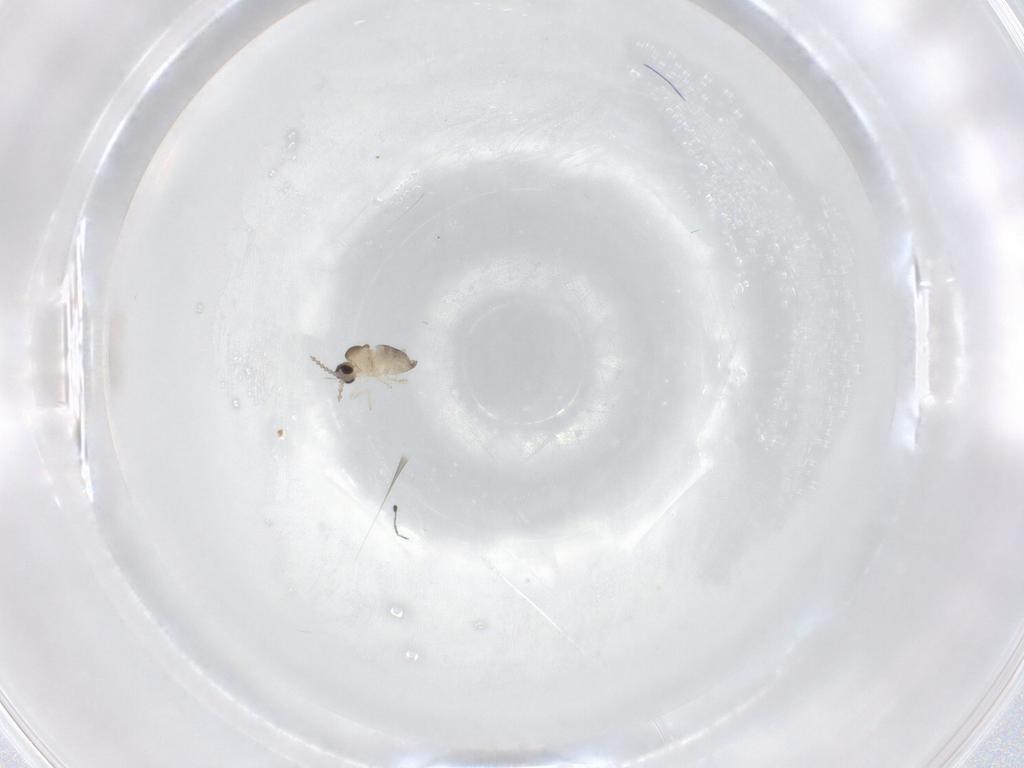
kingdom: Animalia
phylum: Arthropoda
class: Insecta
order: Diptera
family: Cecidomyiidae
